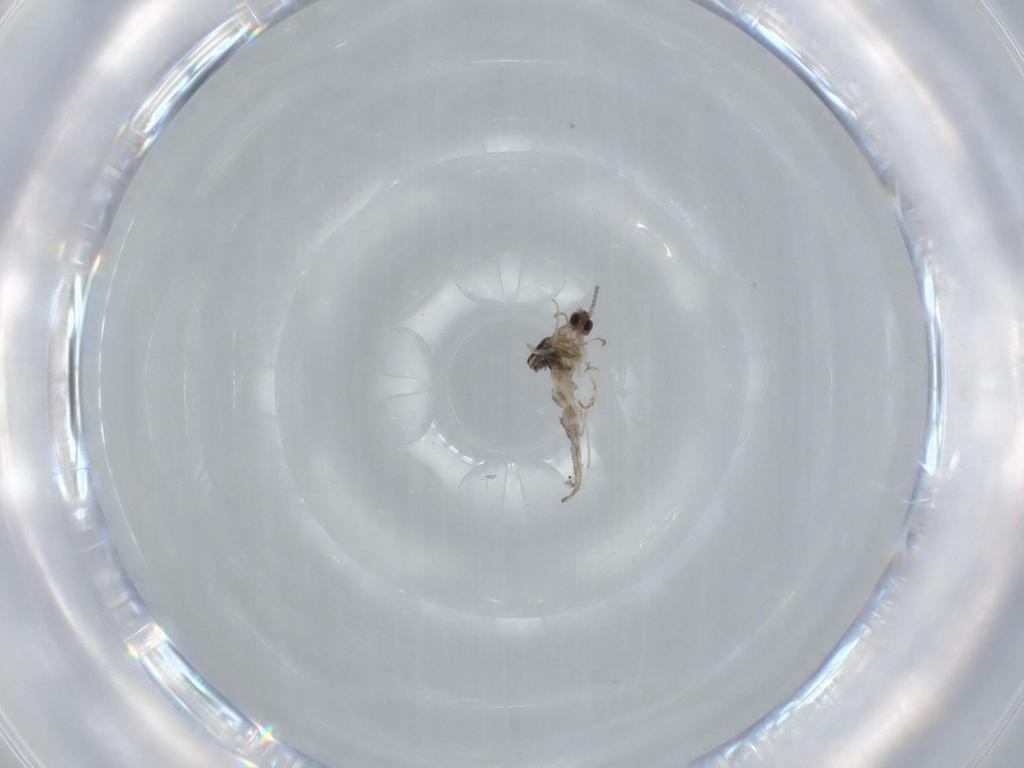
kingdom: Animalia
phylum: Arthropoda
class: Insecta
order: Diptera
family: Cecidomyiidae
